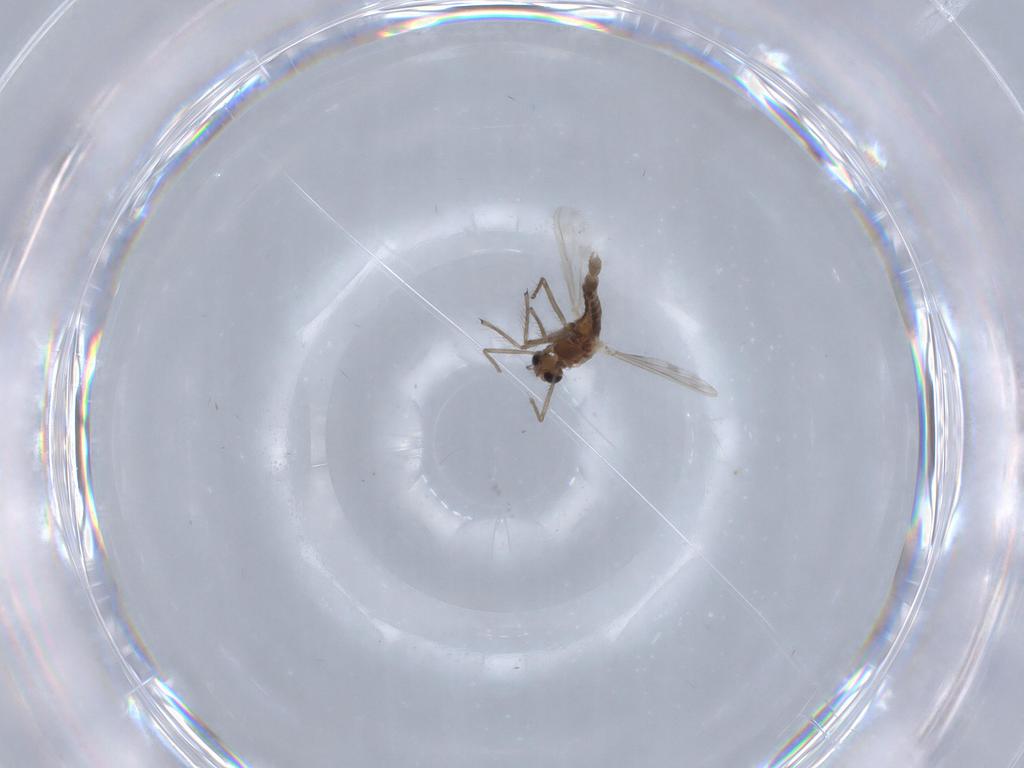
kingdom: Animalia
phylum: Arthropoda
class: Insecta
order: Diptera
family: Chironomidae
